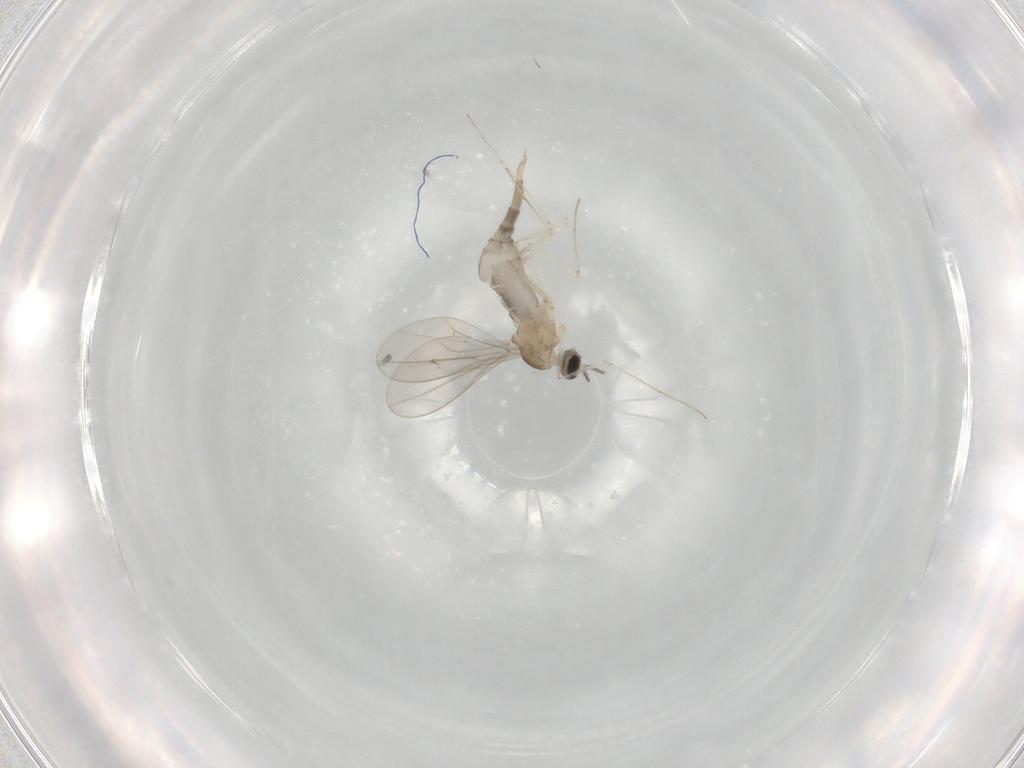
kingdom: Animalia
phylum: Arthropoda
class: Insecta
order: Diptera
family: Cecidomyiidae
